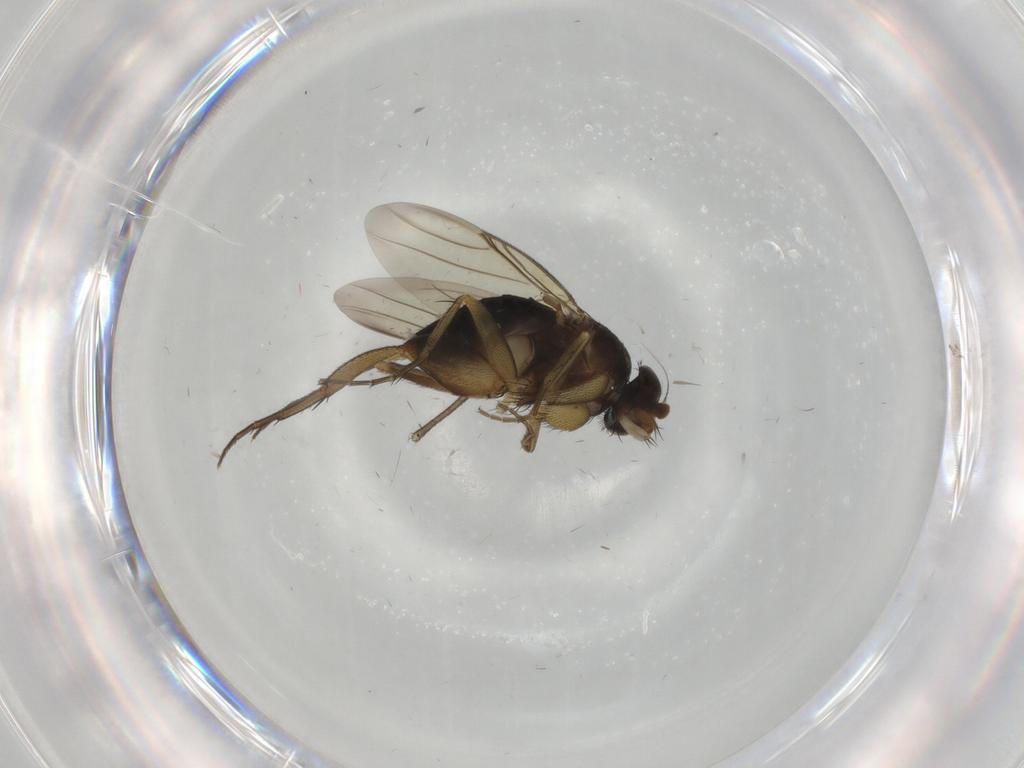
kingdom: Animalia
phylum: Arthropoda
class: Insecta
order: Diptera
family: Phoridae
